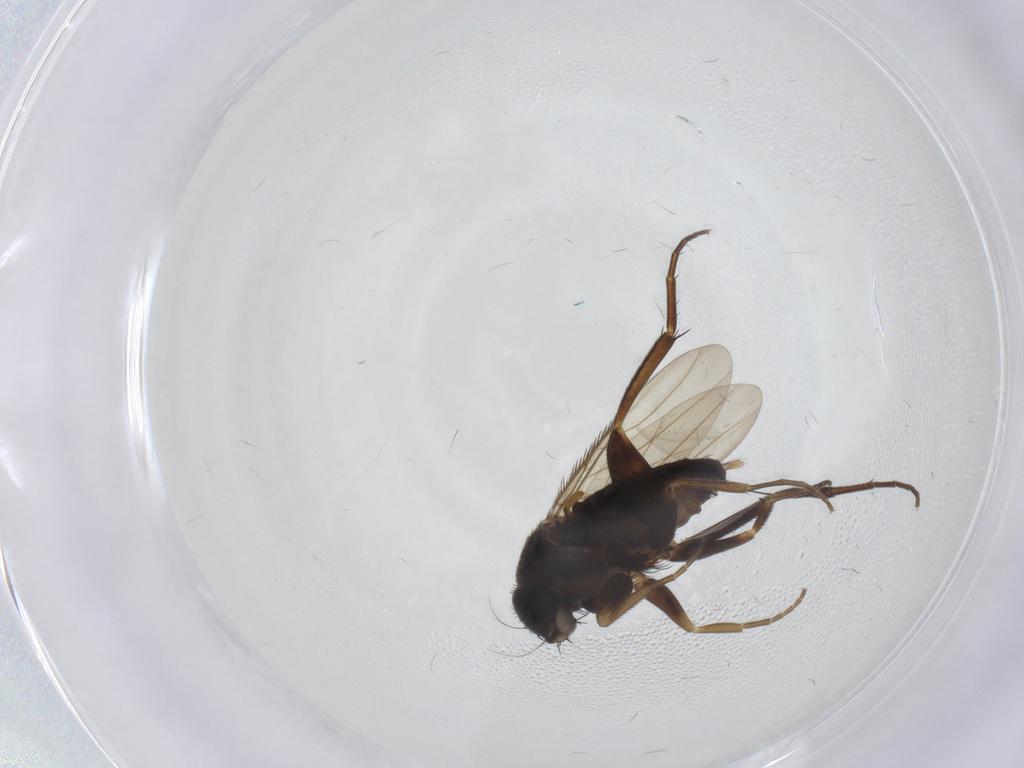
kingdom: Animalia
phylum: Arthropoda
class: Insecta
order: Diptera
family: Phoridae
